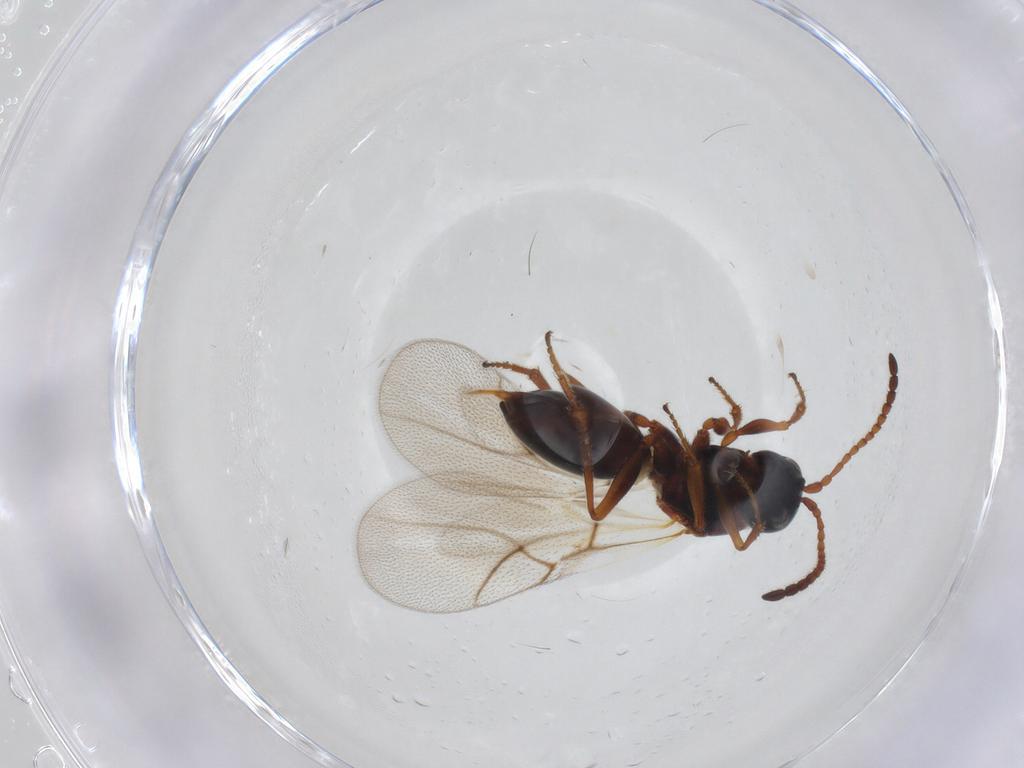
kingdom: Animalia
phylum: Arthropoda
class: Insecta
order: Hymenoptera
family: Figitidae
